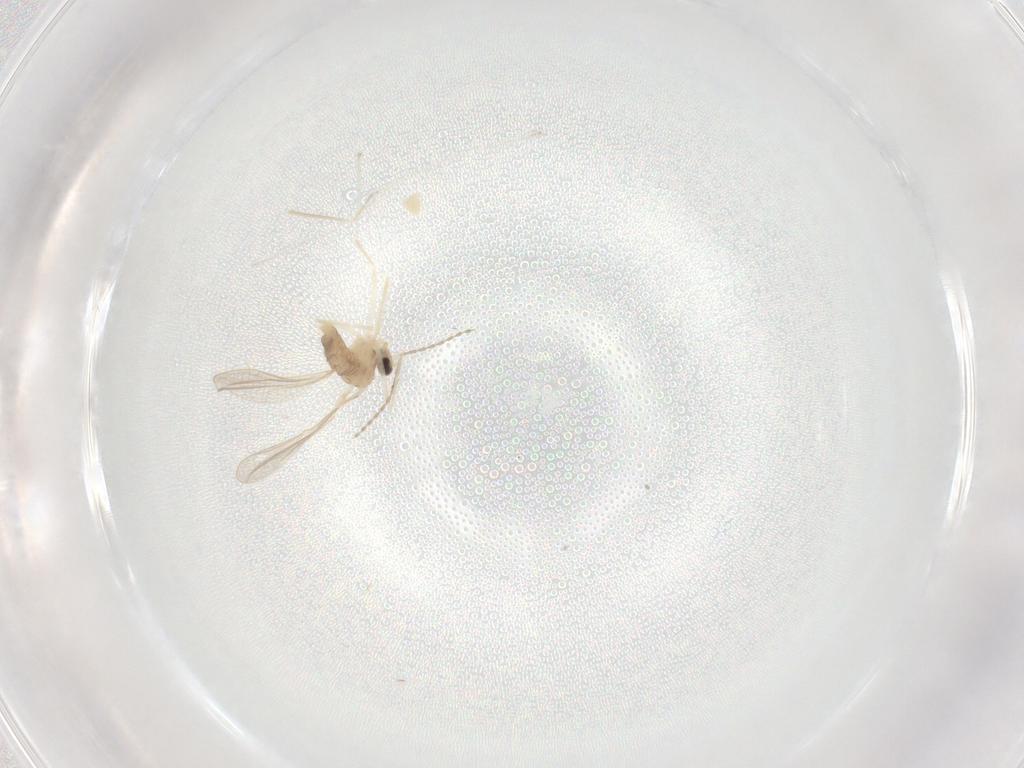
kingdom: Animalia
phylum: Arthropoda
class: Insecta
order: Diptera
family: Cecidomyiidae
